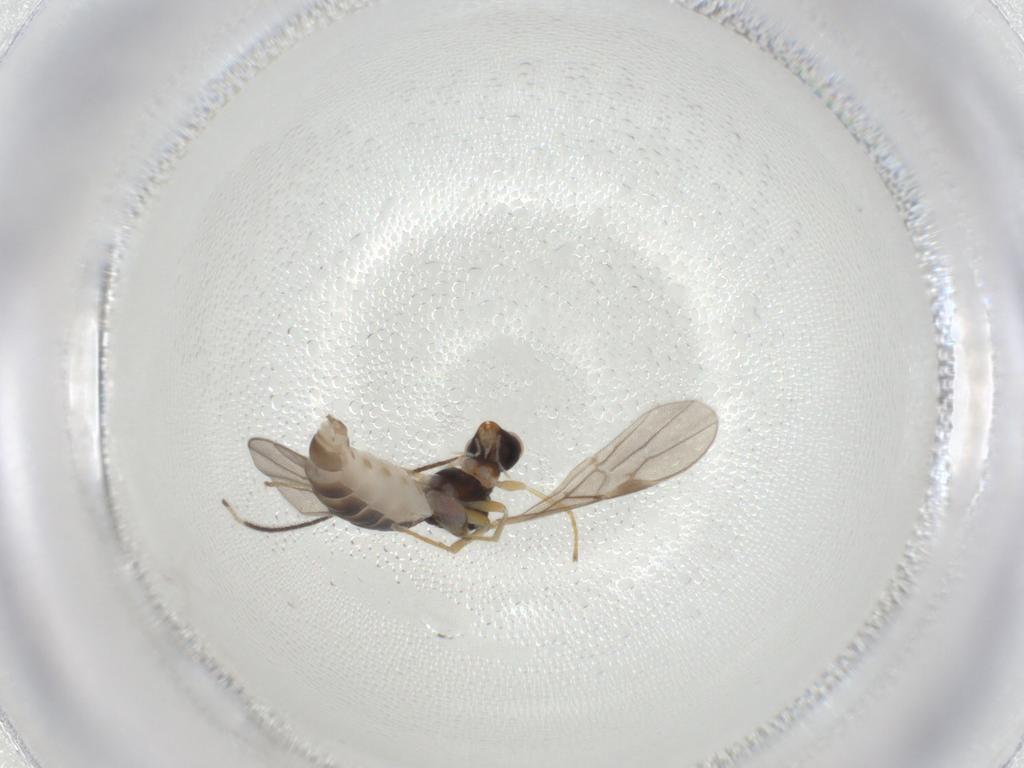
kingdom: Animalia
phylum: Arthropoda
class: Insecta
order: Hymenoptera
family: Braconidae
